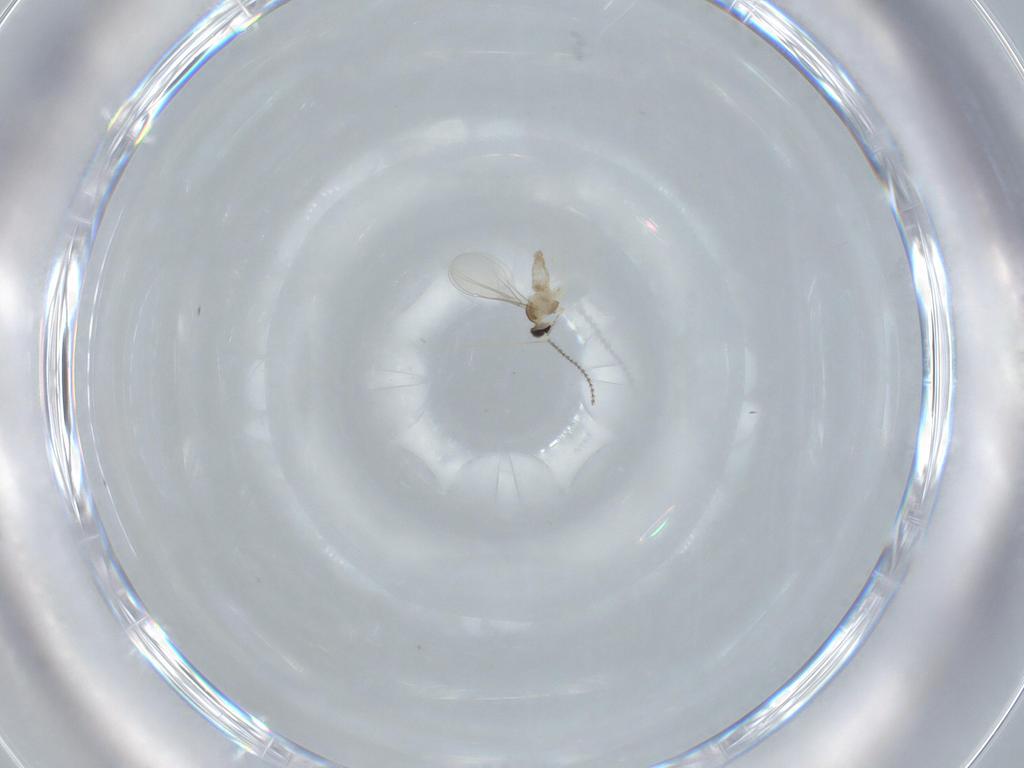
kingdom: Animalia
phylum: Arthropoda
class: Insecta
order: Diptera
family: Cecidomyiidae
